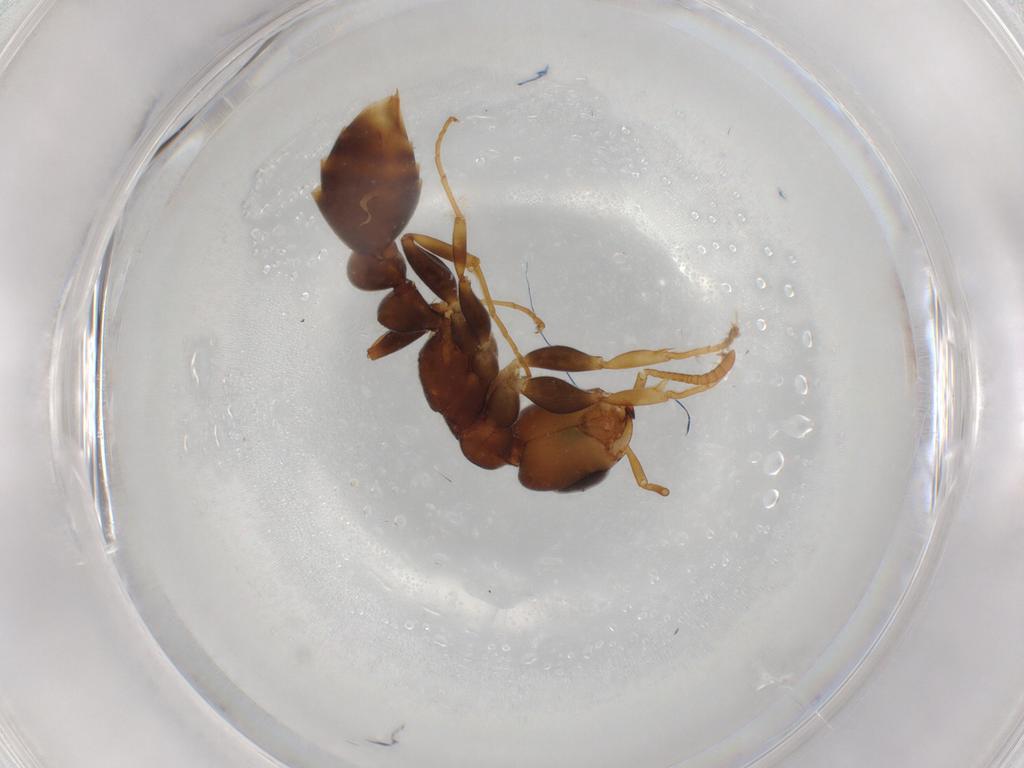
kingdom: Animalia
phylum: Arthropoda
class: Insecta
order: Hymenoptera
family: Formicidae
